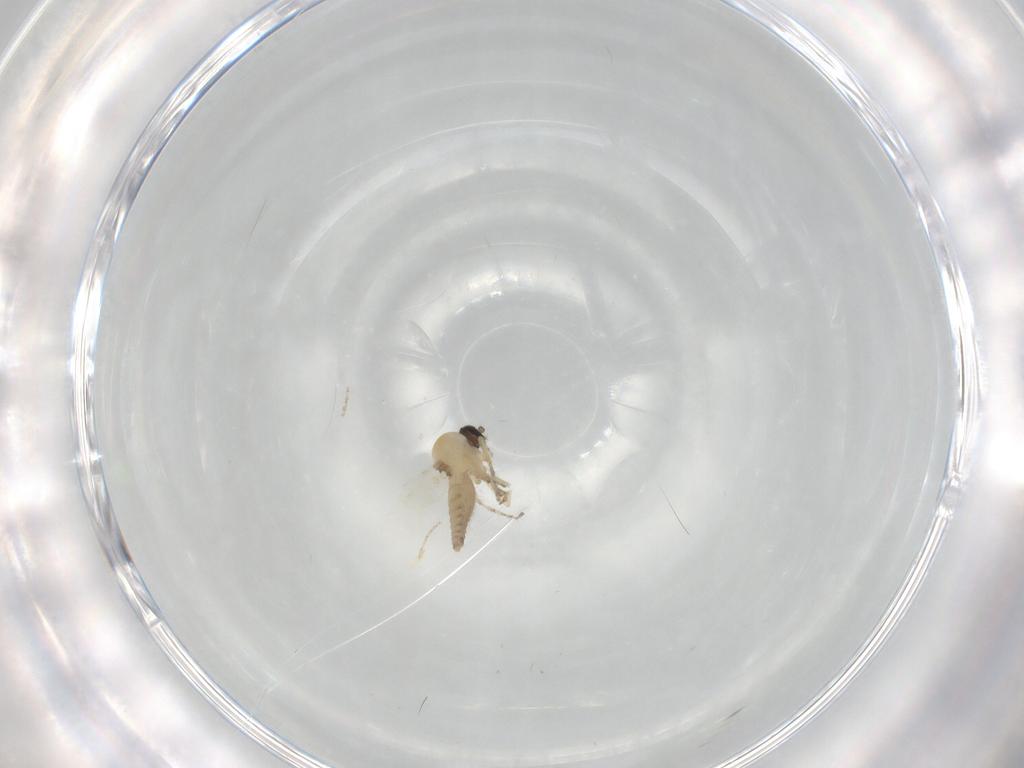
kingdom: Animalia
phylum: Arthropoda
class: Insecta
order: Diptera
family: Ceratopogonidae
